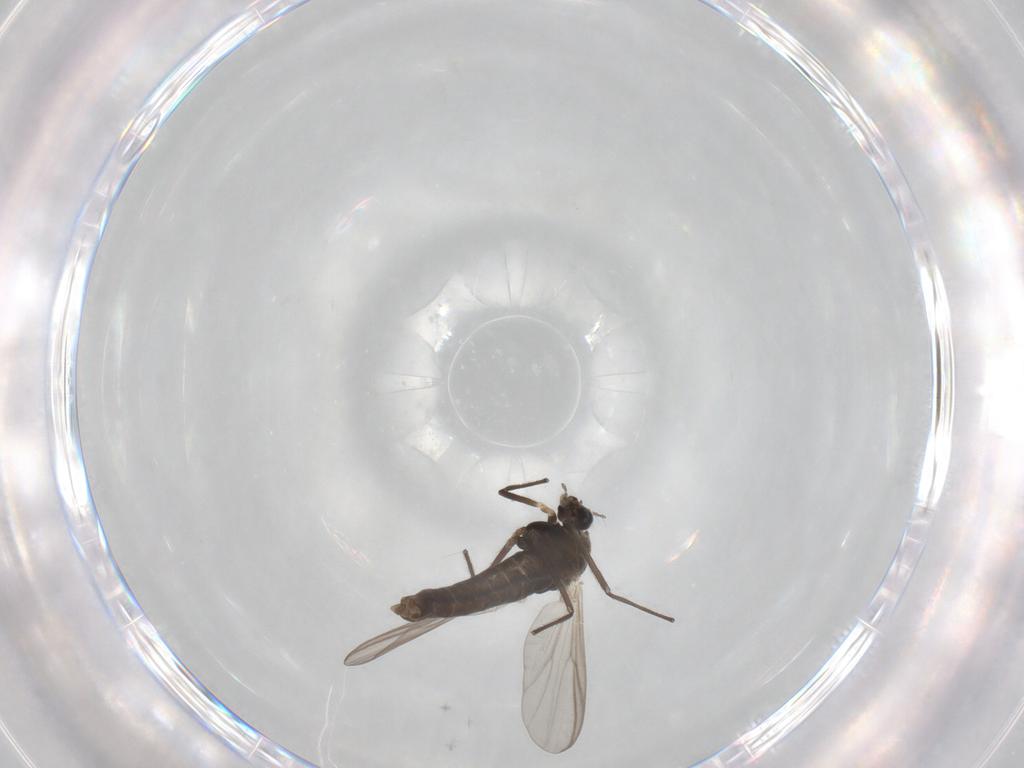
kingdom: Animalia
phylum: Arthropoda
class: Insecta
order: Diptera
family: Chironomidae
